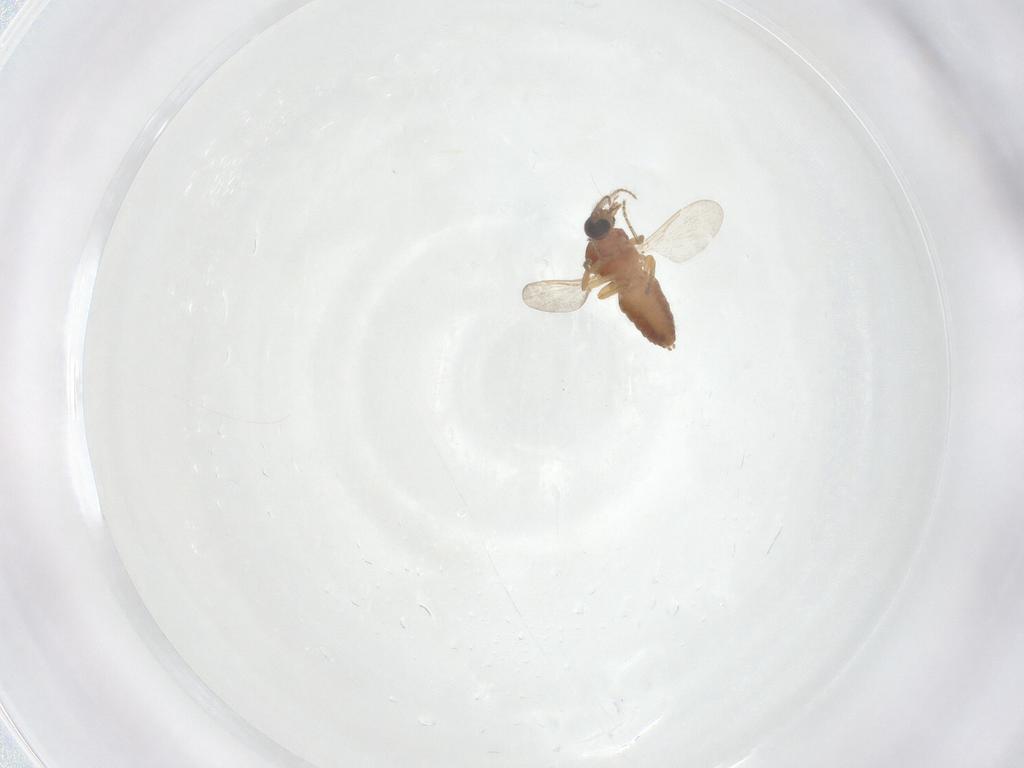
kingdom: Animalia
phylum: Arthropoda
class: Insecta
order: Diptera
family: Ceratopogonidae
